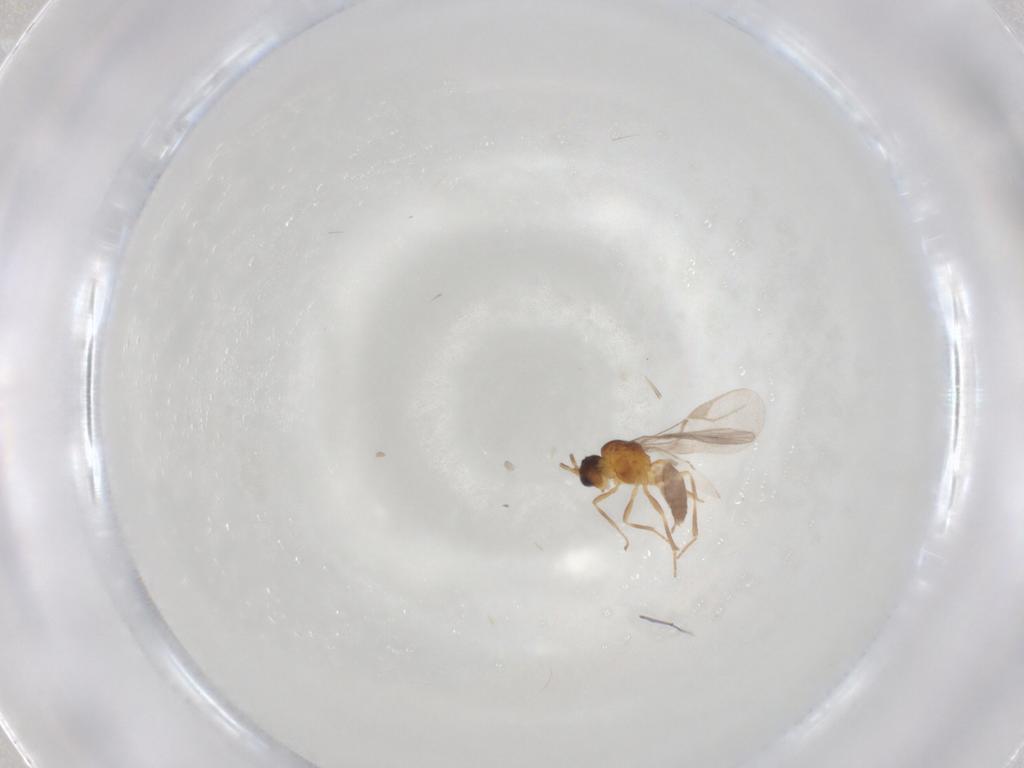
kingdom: Animalia
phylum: Arthropoda
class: Insecta
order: Hymenoptera
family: Braconidae
